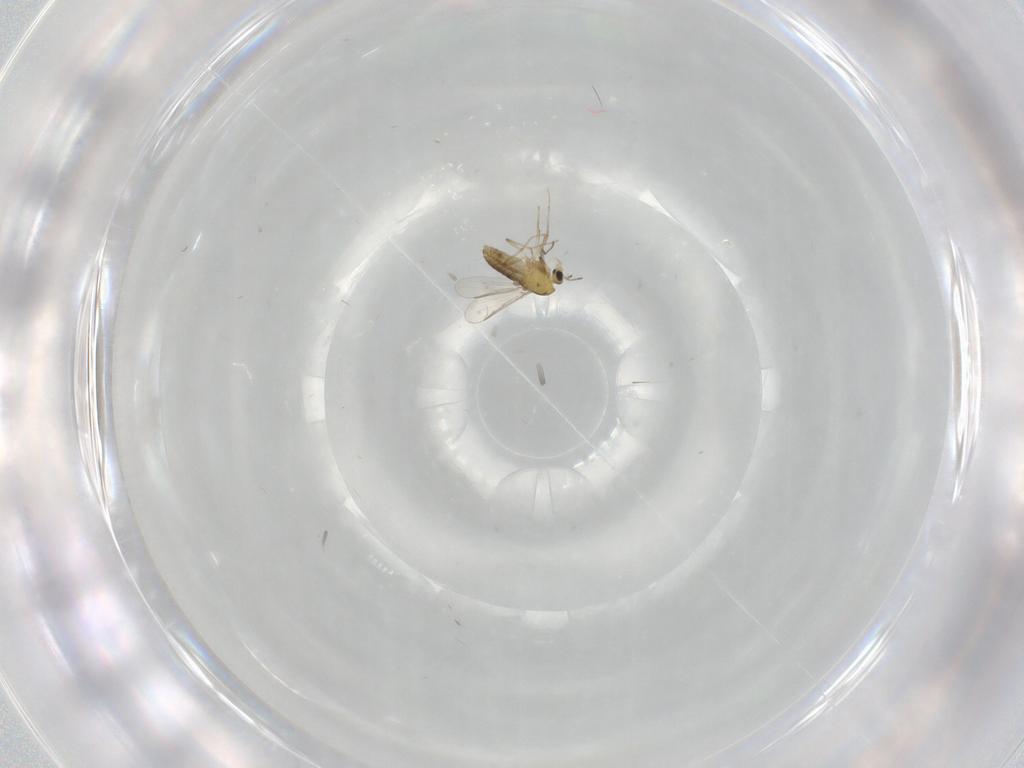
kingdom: Animalia
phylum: Arthropoda
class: Insecta
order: Diptera
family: Chironomidae
